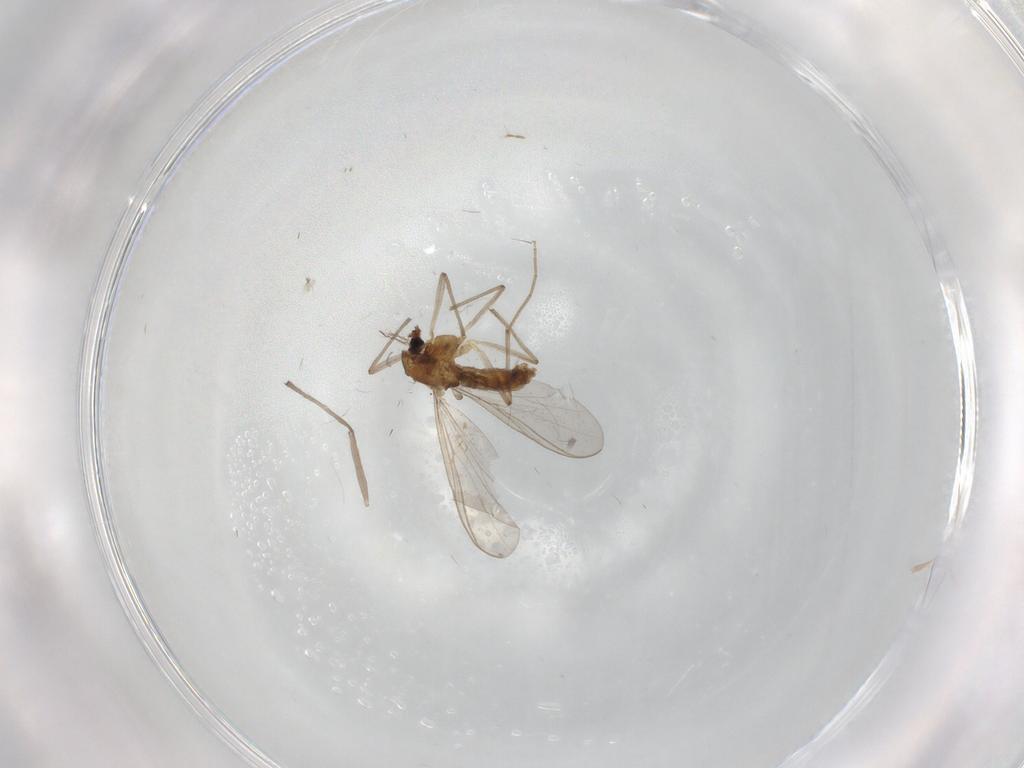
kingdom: Animalia
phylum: Arthropoda
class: Insecta
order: Diptera
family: Chironomidae
